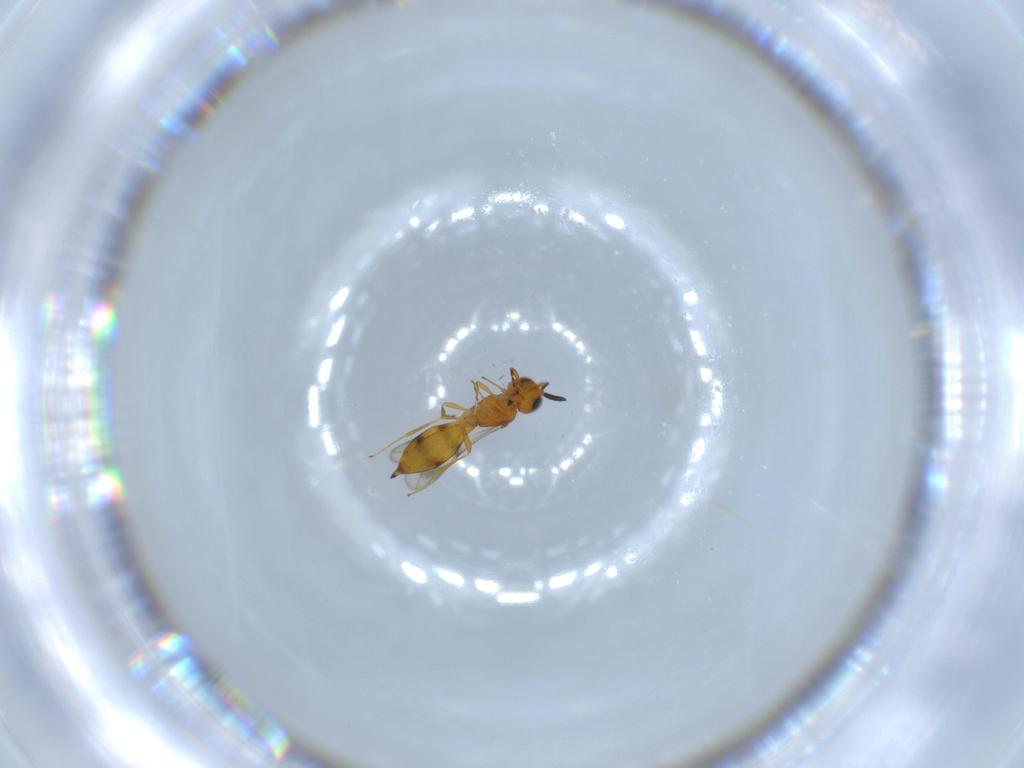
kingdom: Animalia
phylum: Arthropoda
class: Insecta
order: Hymenoptera
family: Scelionidae
